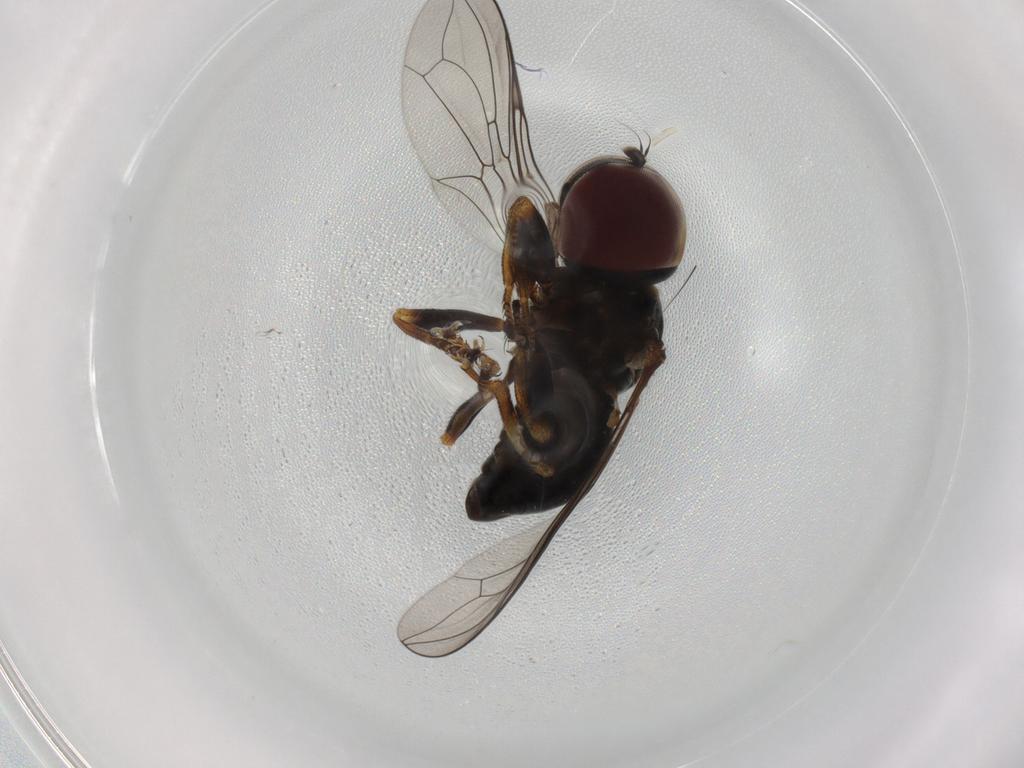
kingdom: Animalia
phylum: Arthropoda
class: Insecta
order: Diptera
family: Pipunculidae
